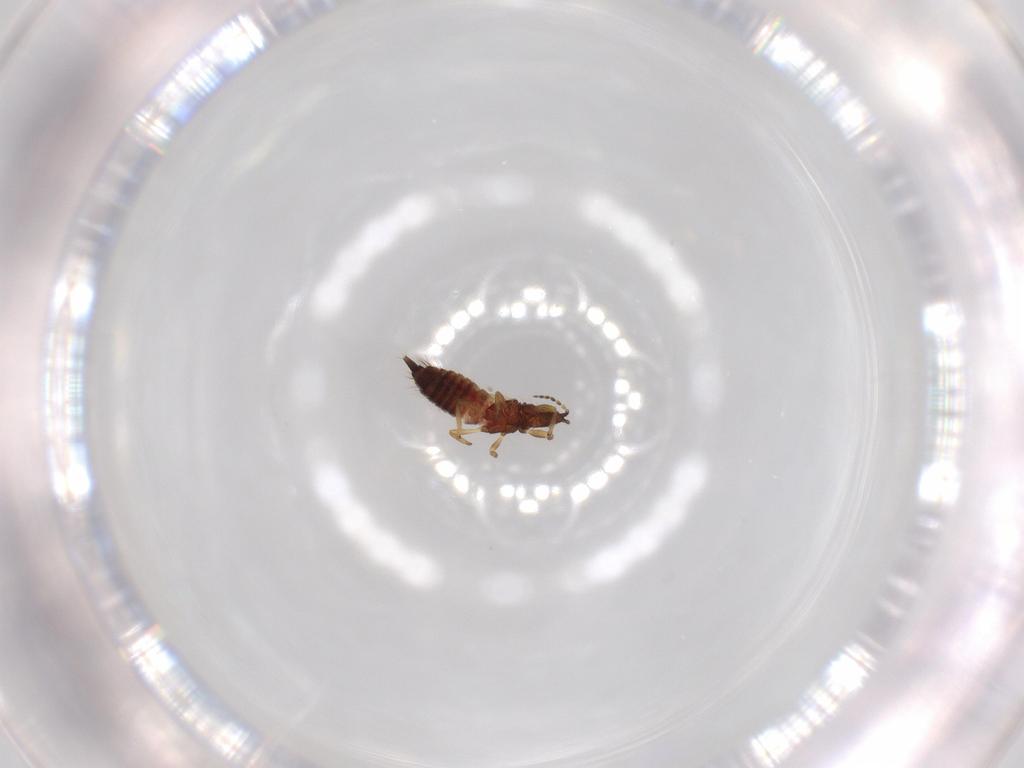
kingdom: Animalia
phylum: Arthropoda
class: Insecta
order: Thysanoptera
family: Phlaeothripidae
